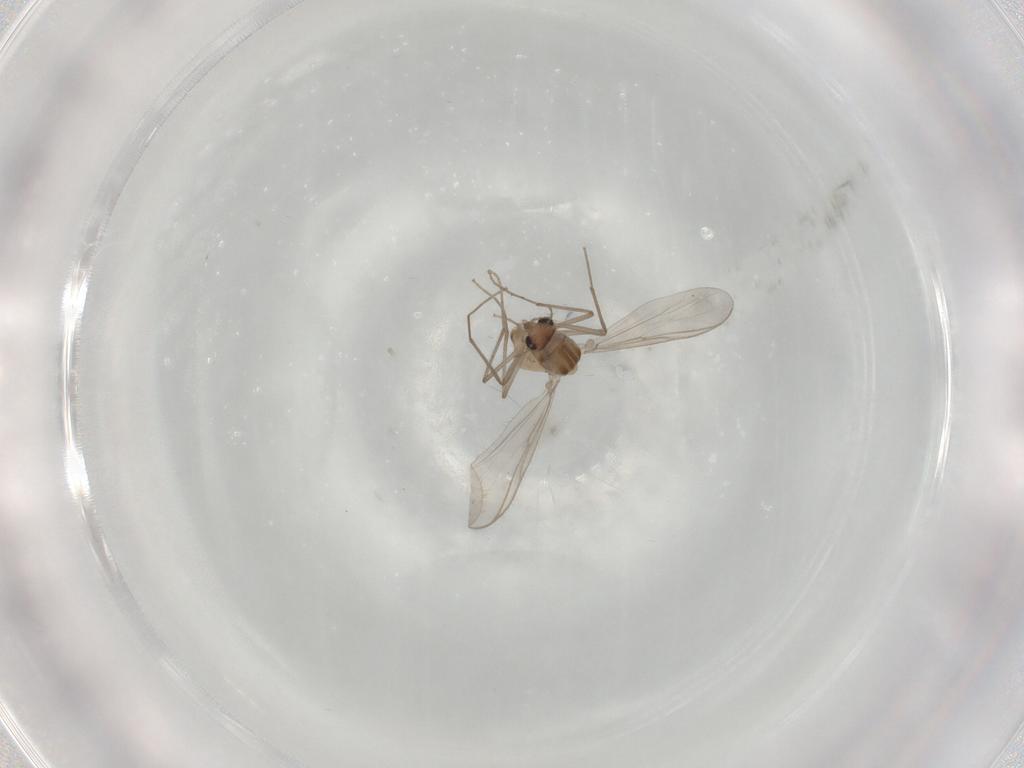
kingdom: Animalia
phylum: Arthropoda
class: Insecta
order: Diptera
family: Chironomidae
